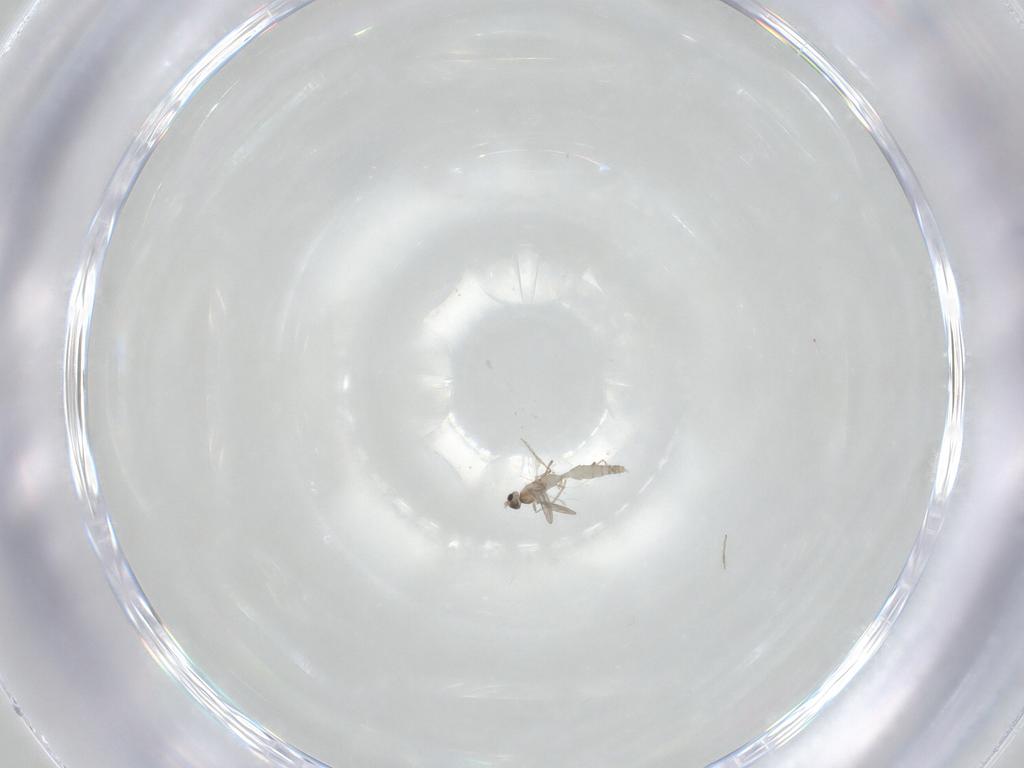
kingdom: Animalia
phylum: Arthropoda
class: Insecta
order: Diptera
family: Cecidomyiidae
